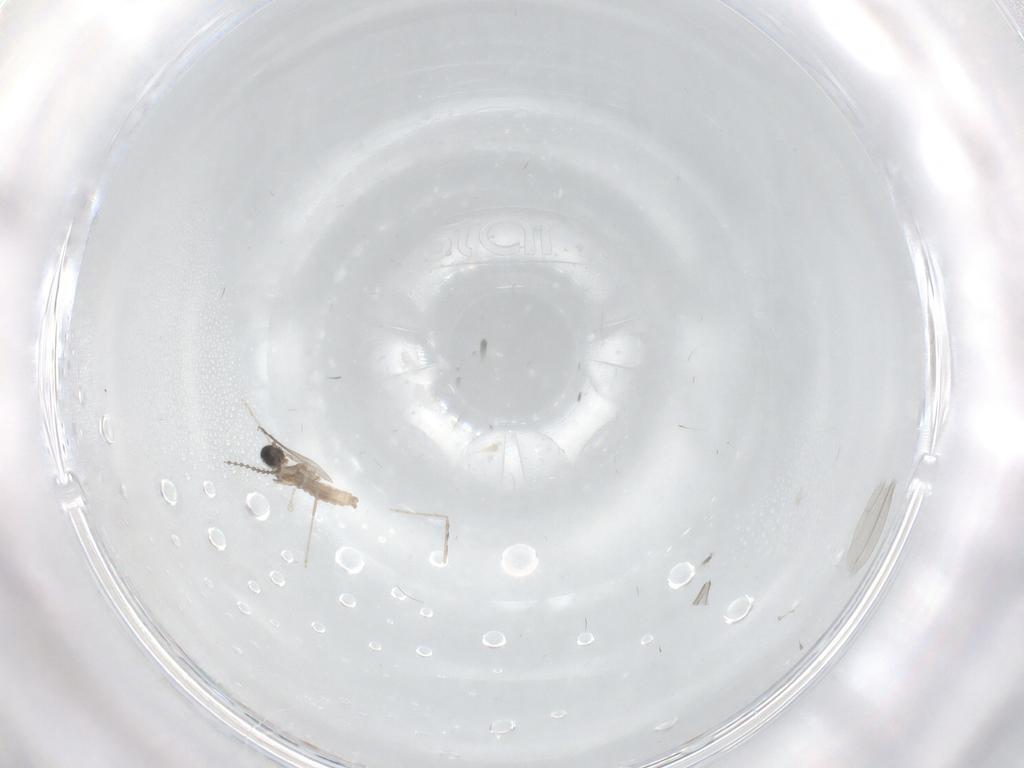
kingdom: Animalia
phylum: Arthropoda
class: Insecta
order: Diptera
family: Cecidomyiidae
